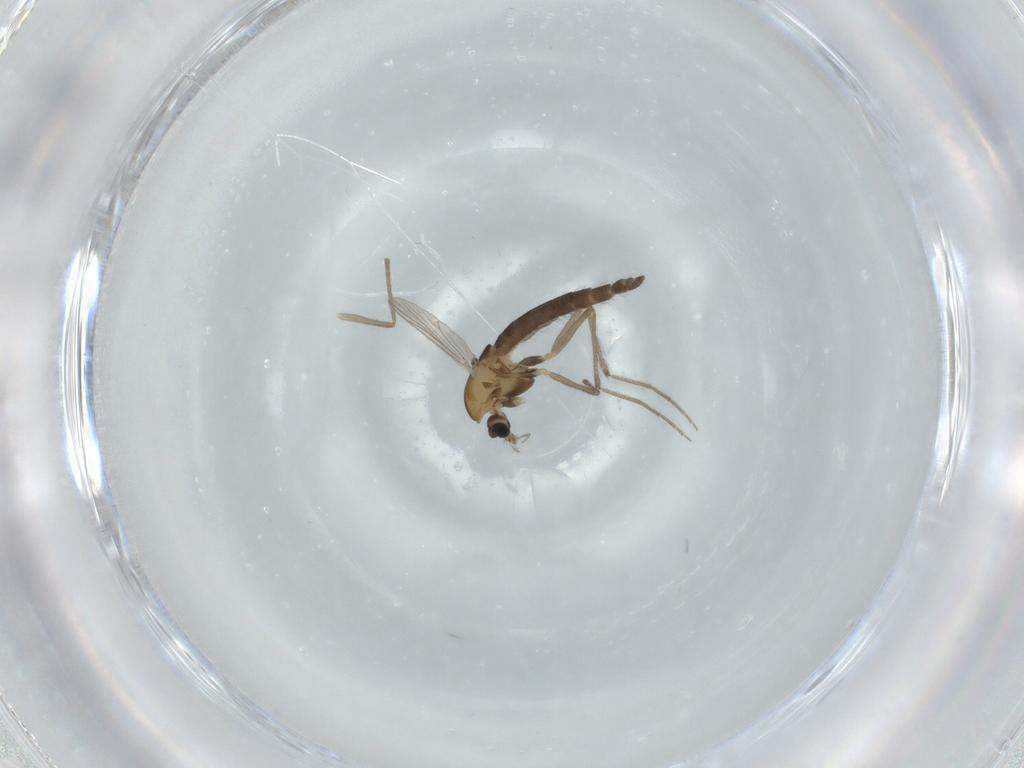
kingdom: Animalia
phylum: Arthropoda
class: Insecta
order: Diptera
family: Chironomidae
